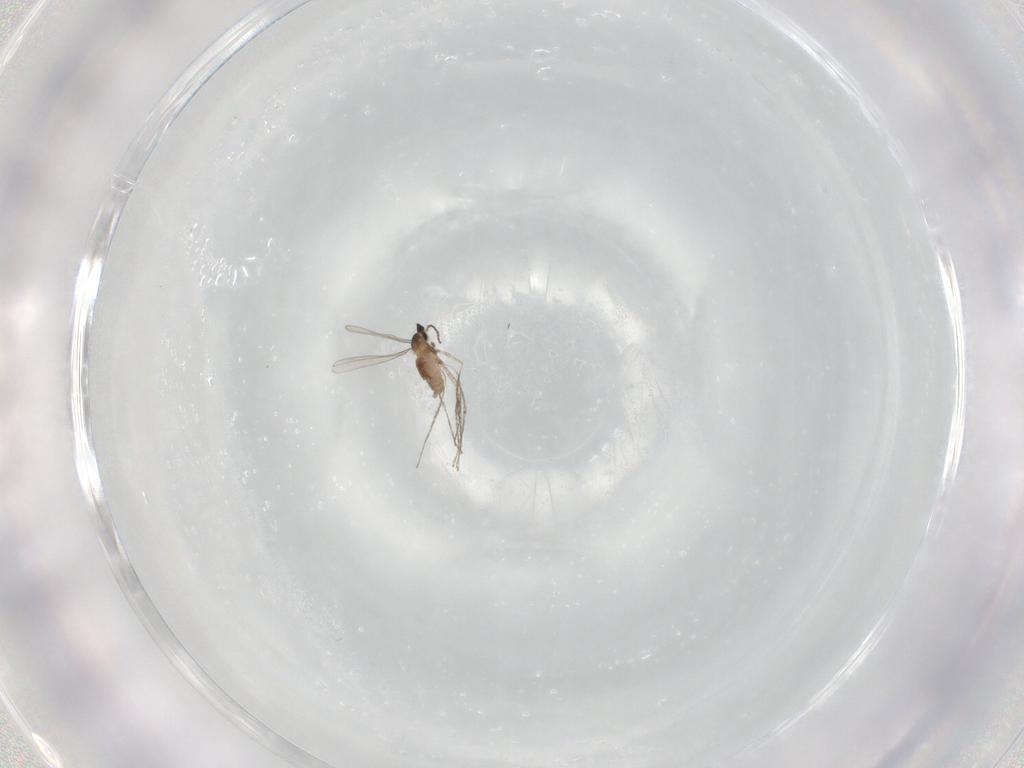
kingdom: Animalia
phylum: Arthropoda
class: Insecta
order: Diptera
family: Cecidomyiidae
